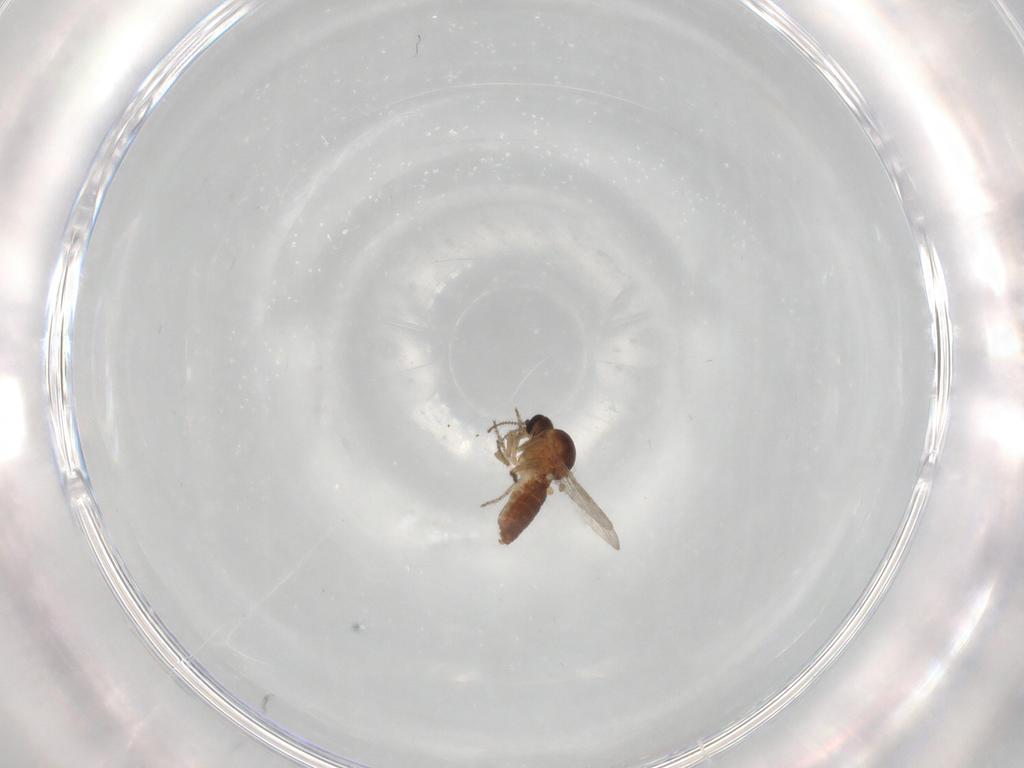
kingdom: Animalia
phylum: Arthropoda
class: Insecta
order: Diptera
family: Ceratopogonidae
